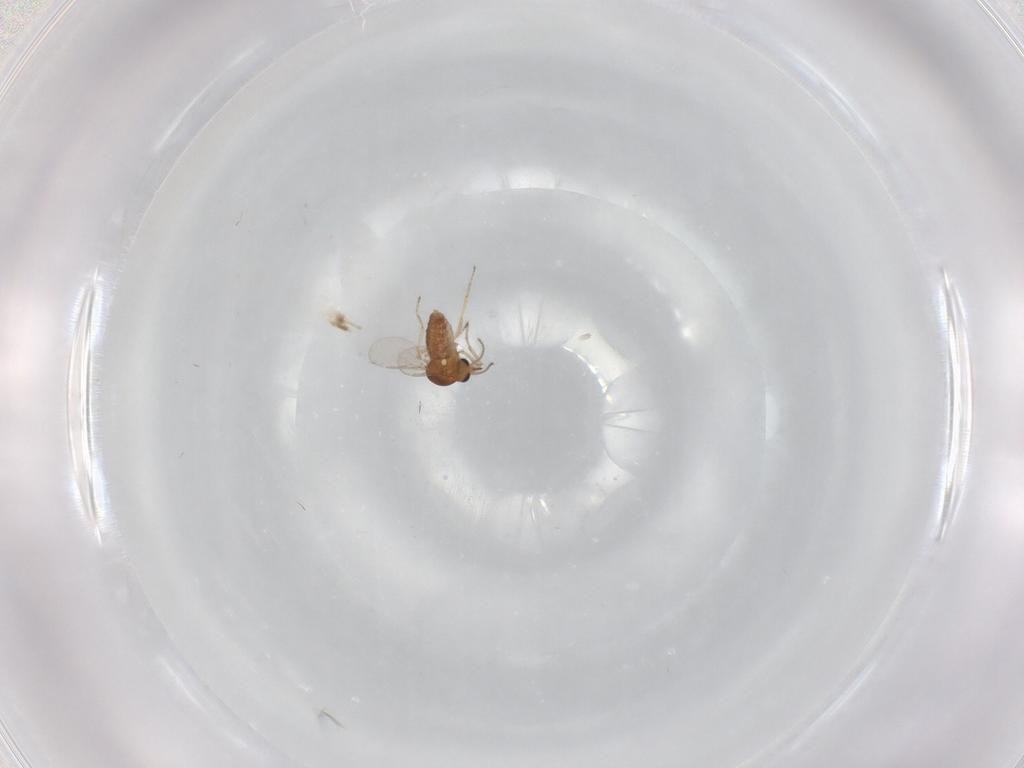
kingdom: Animalia
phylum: Arthropoda
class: Insecta
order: Diptera
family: Ceratopogonidae
